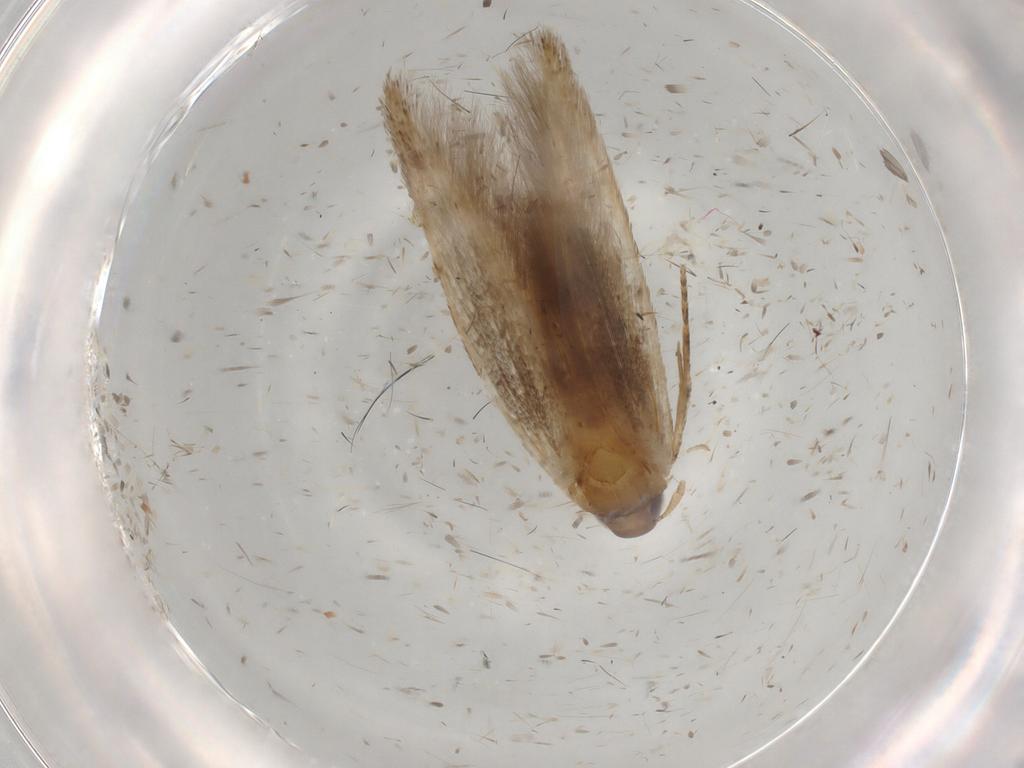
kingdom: Animalia
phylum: Arthropoda
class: Insecta
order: Lepidoptera
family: Cosmopterigidae
